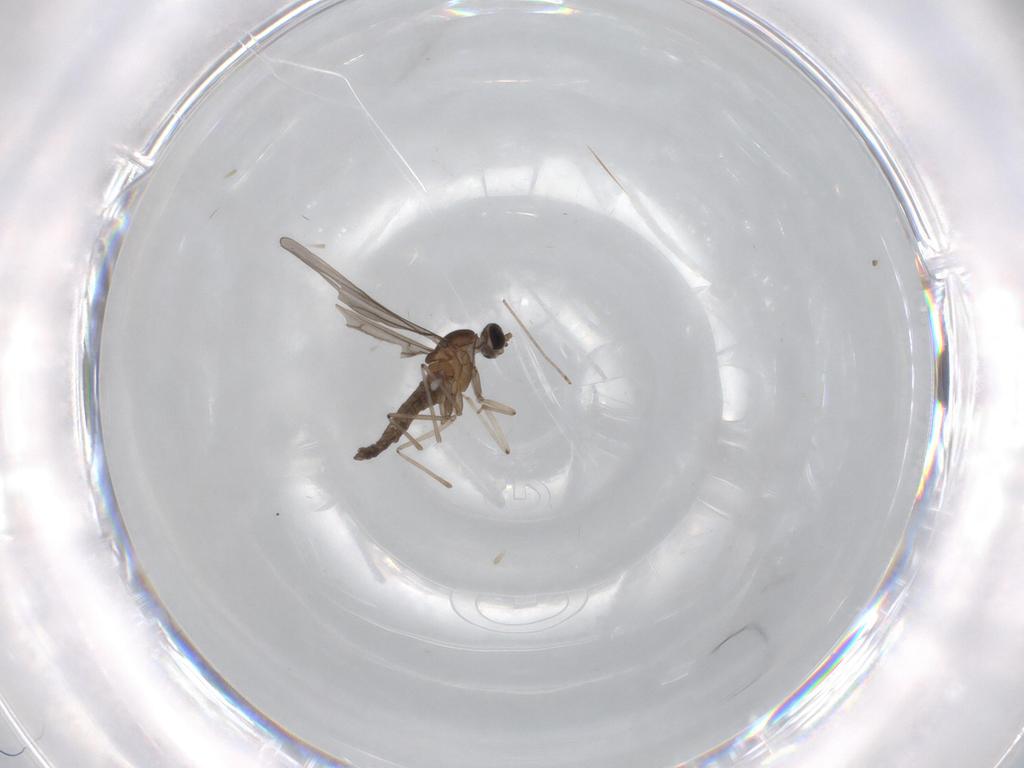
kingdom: Animalia
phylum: Arthropoda
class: Insecta
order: Diptera
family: Cecidomyiidae
